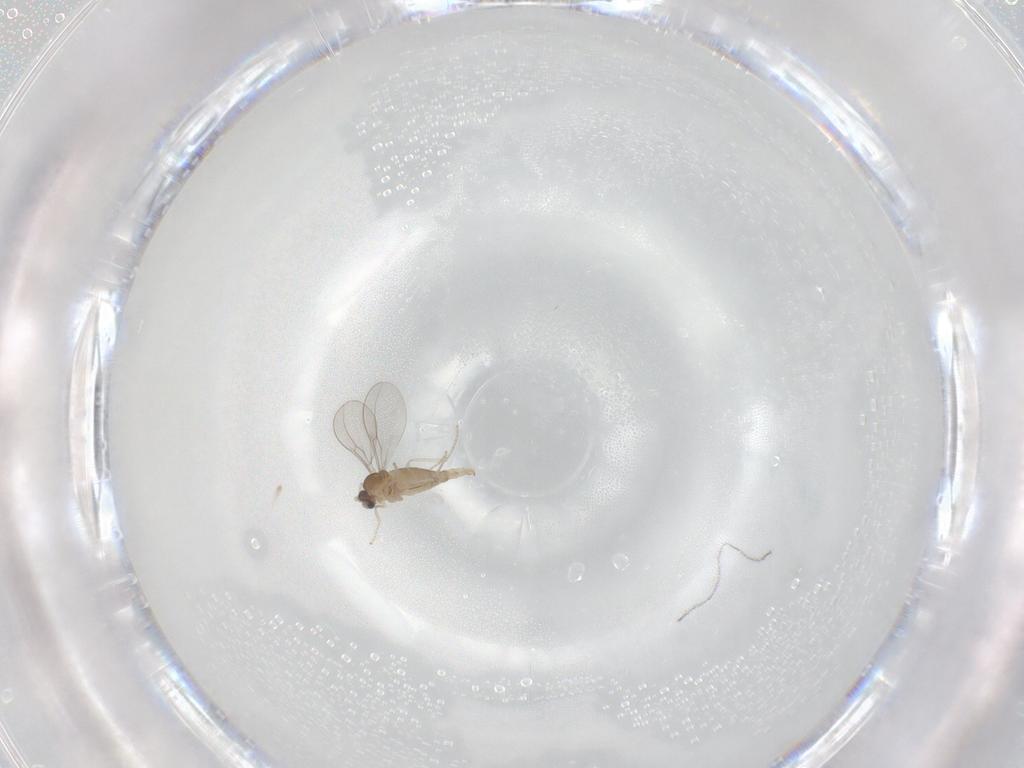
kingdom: Animalia
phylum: Arthropoda
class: Insecta
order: Diptera
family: Cecidomyiidae
